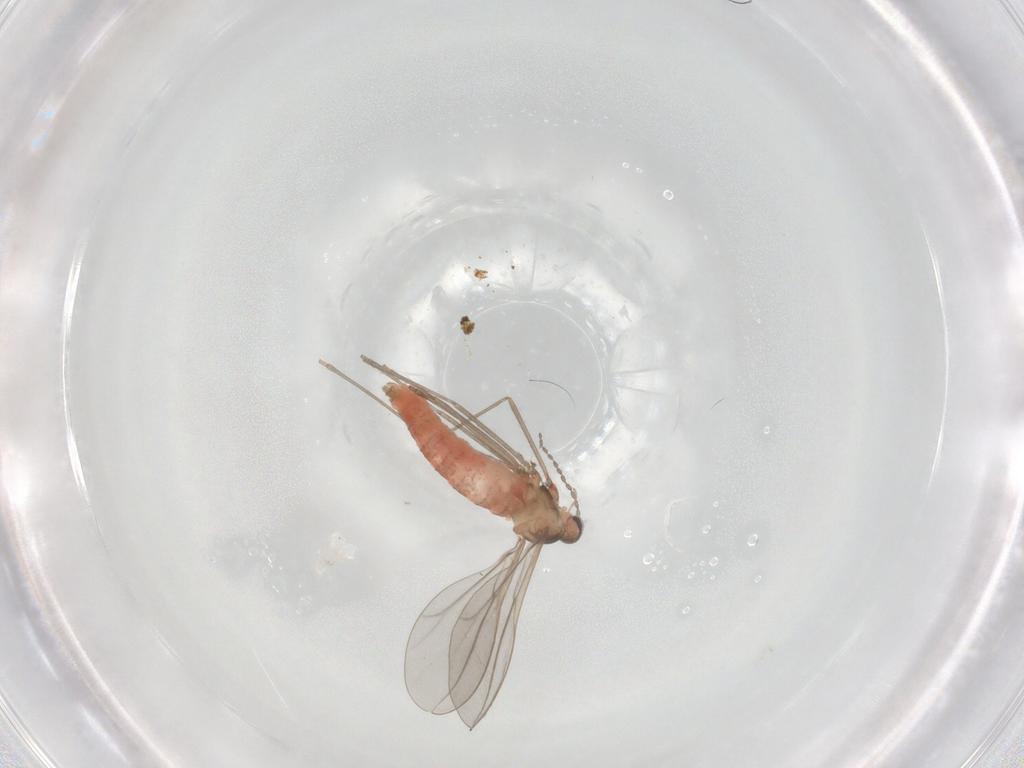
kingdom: Animalia
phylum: Arthropoda
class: Insecta
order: Diptera
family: Cecidomyiidae
